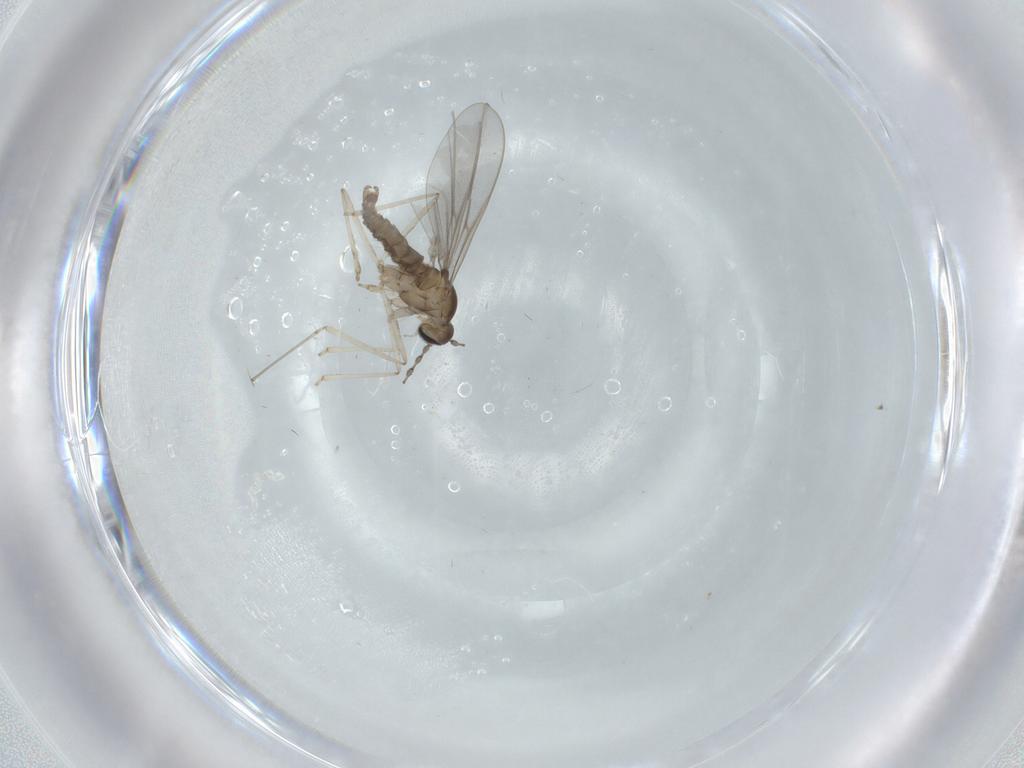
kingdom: Animalia
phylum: Arthropoda
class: Insecta
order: Diptera
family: Cecidomyiidae
